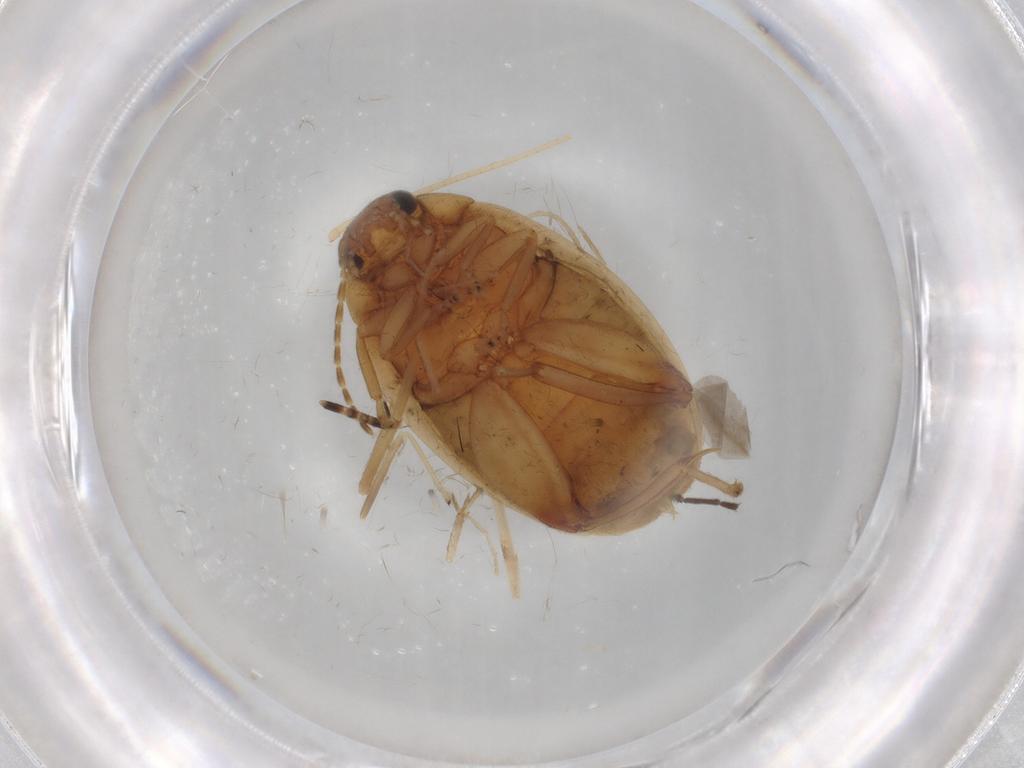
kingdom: Animalia
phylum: Arthropoda
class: Insecta
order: Coleoptera
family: Scirtidae
